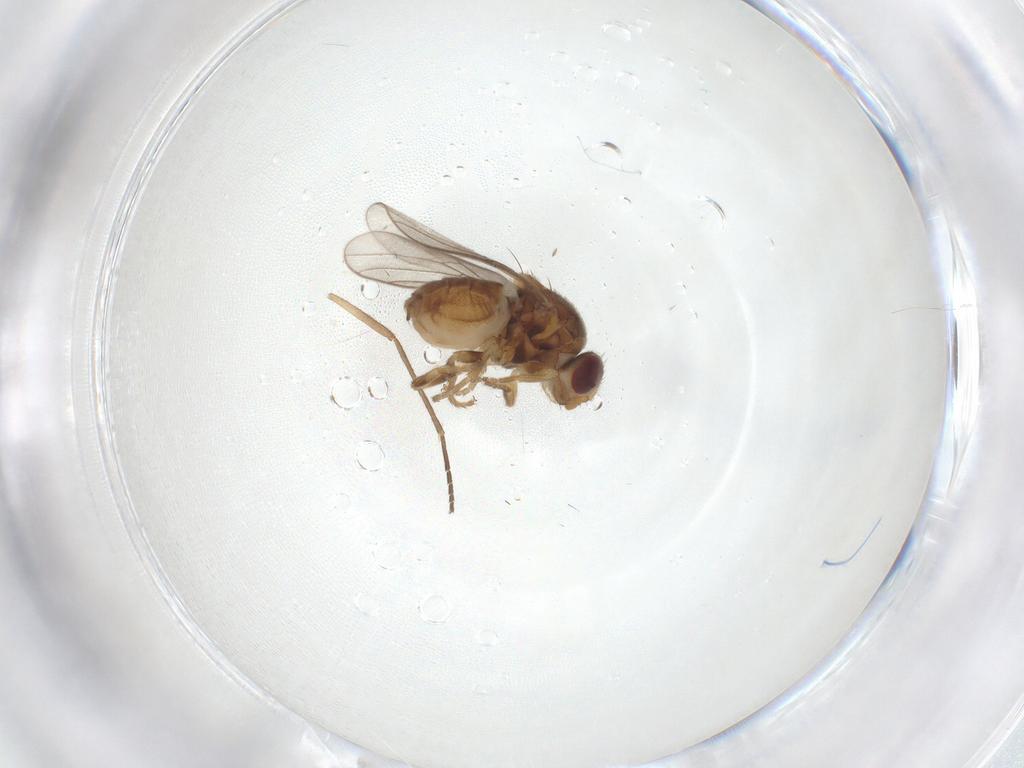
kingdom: Animalia
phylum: Arthropoda
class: Insecta
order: Diptera
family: Chloropidae
